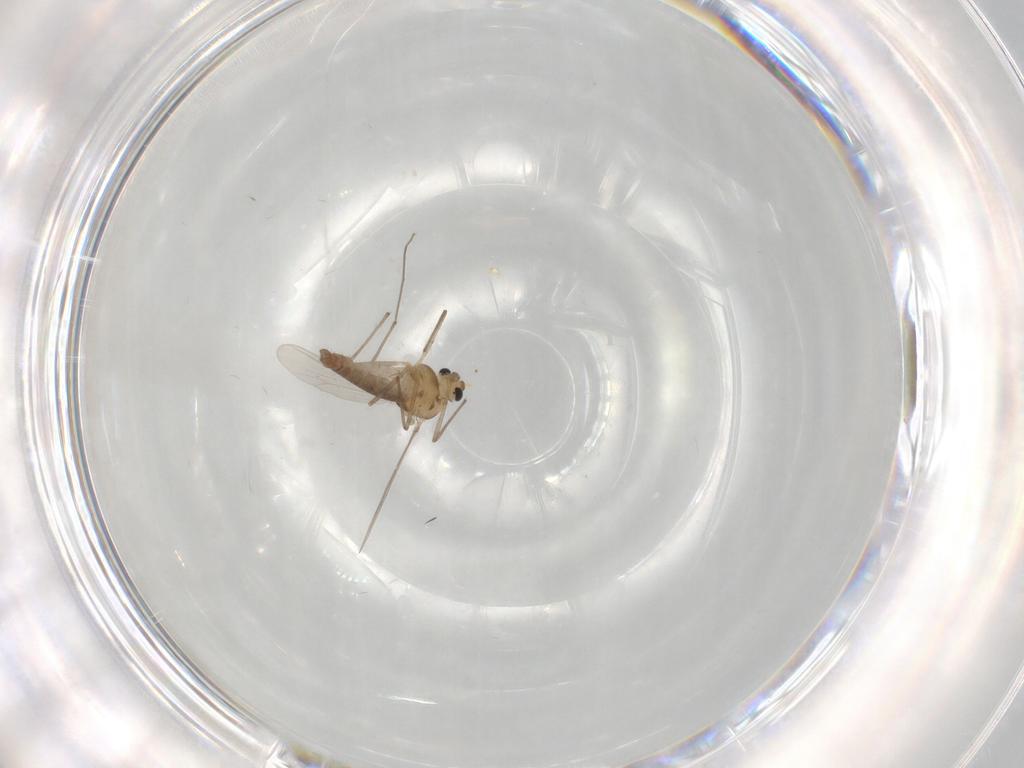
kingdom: Animalia
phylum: Arthropoda
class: Insecta
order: Diptera
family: Chironomidae
